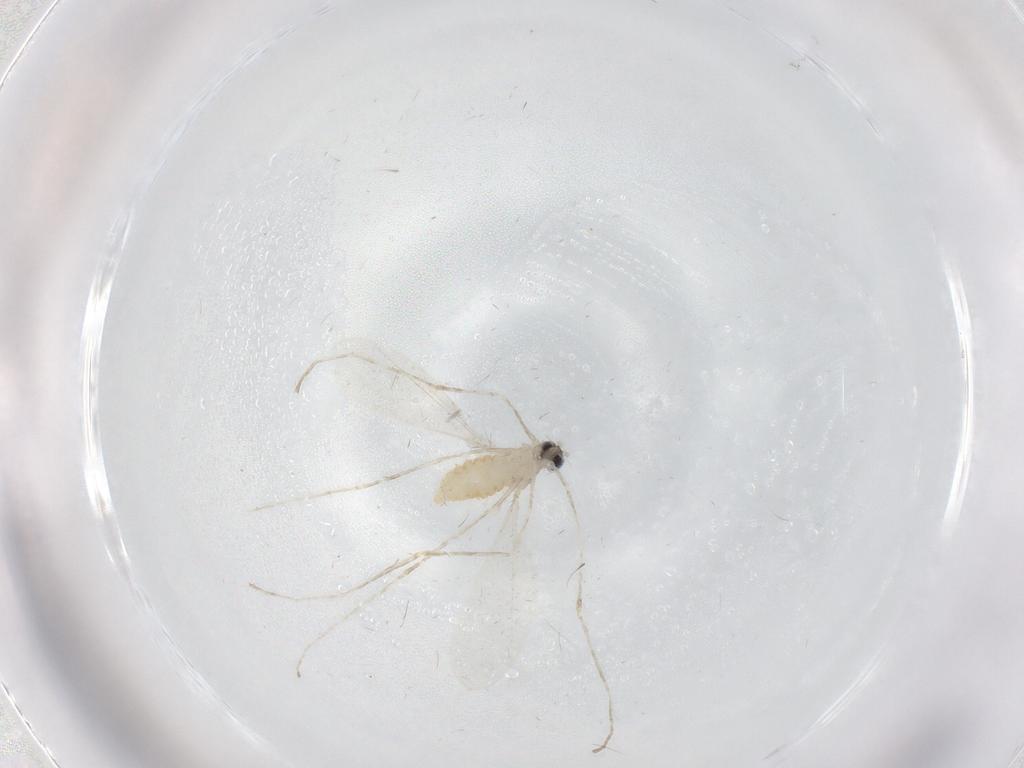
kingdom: Animalia
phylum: Arthropoda
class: Insecta
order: Diptera
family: Cecidomyiidae
